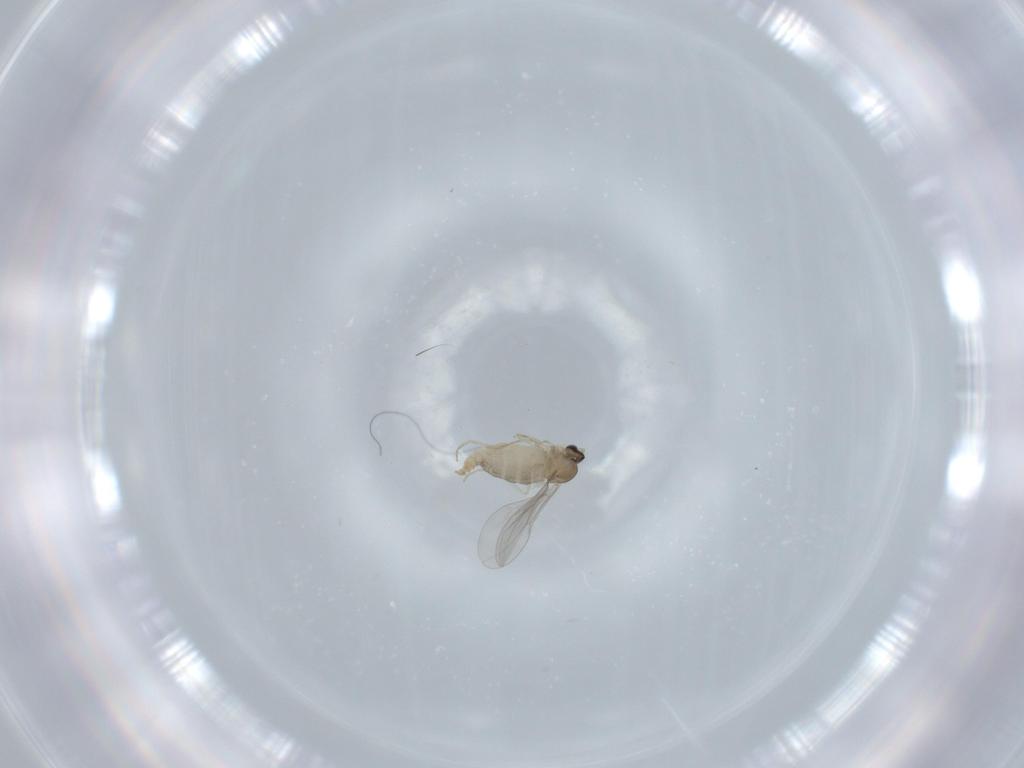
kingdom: Animalia
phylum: Arthropoda
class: Insecta
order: Diptera
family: Cecidomyiidae
